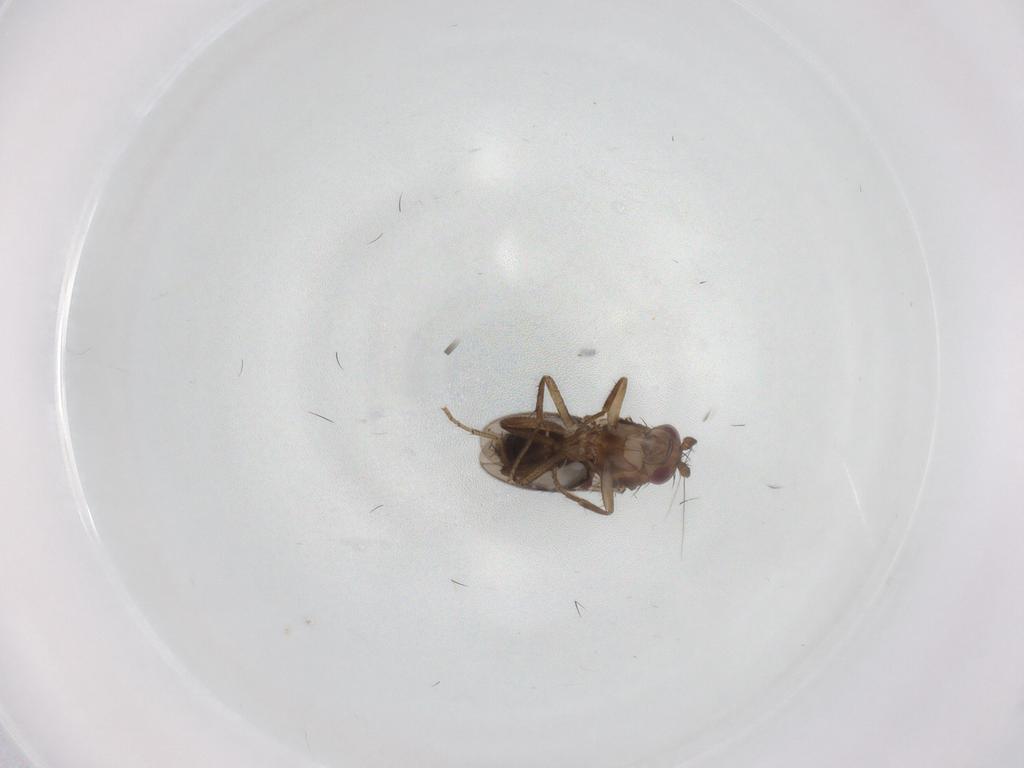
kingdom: Animalia
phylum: Arthropoda
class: Insecta
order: Diptera
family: Sphaeroceridae
